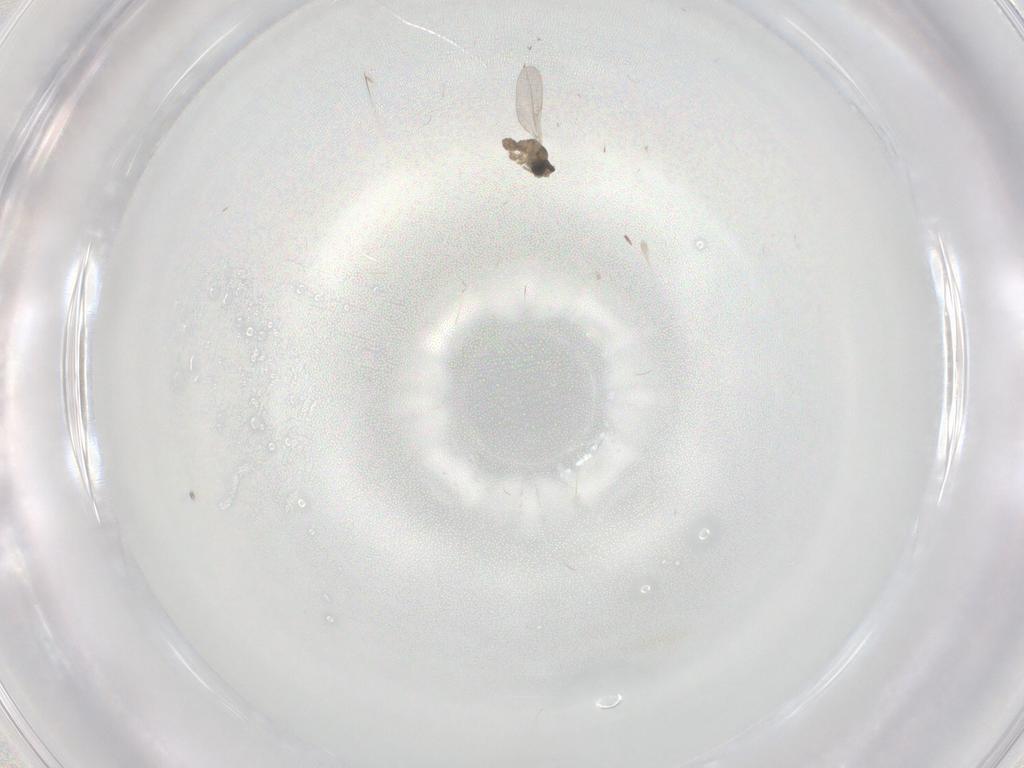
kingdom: Animalia
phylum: Arthropoda
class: Insecta
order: Diptera
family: Cecidomyiidae
